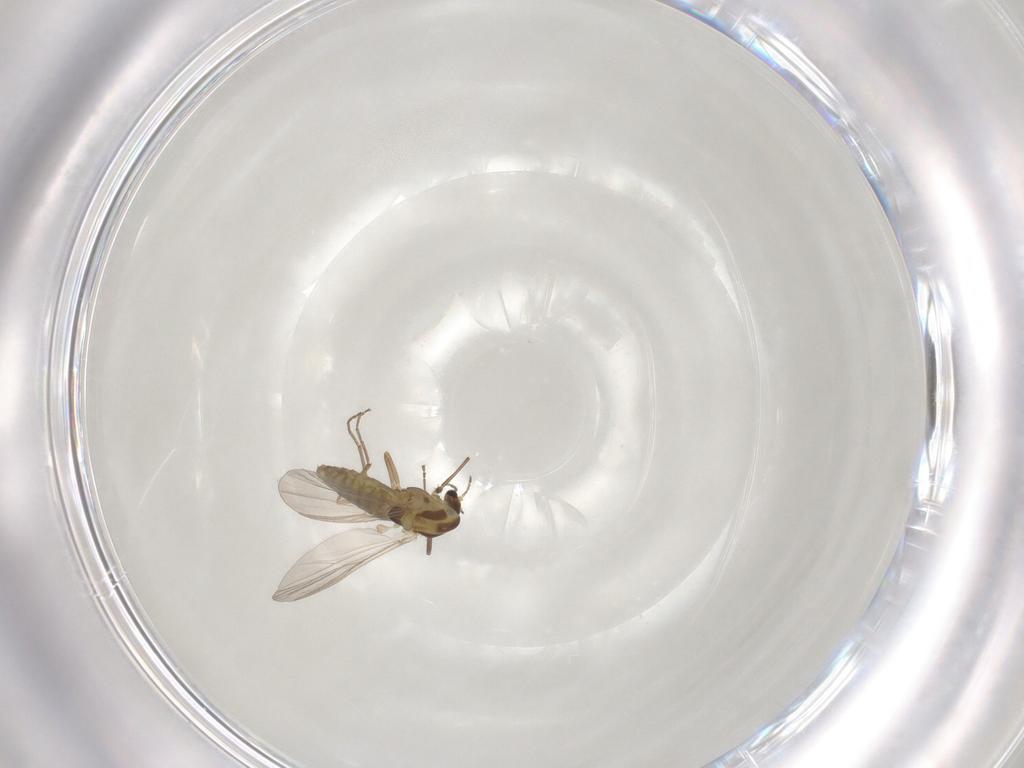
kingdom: Animalia
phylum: Arthropoda
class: Insecta
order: Diptera
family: Chironomidae
